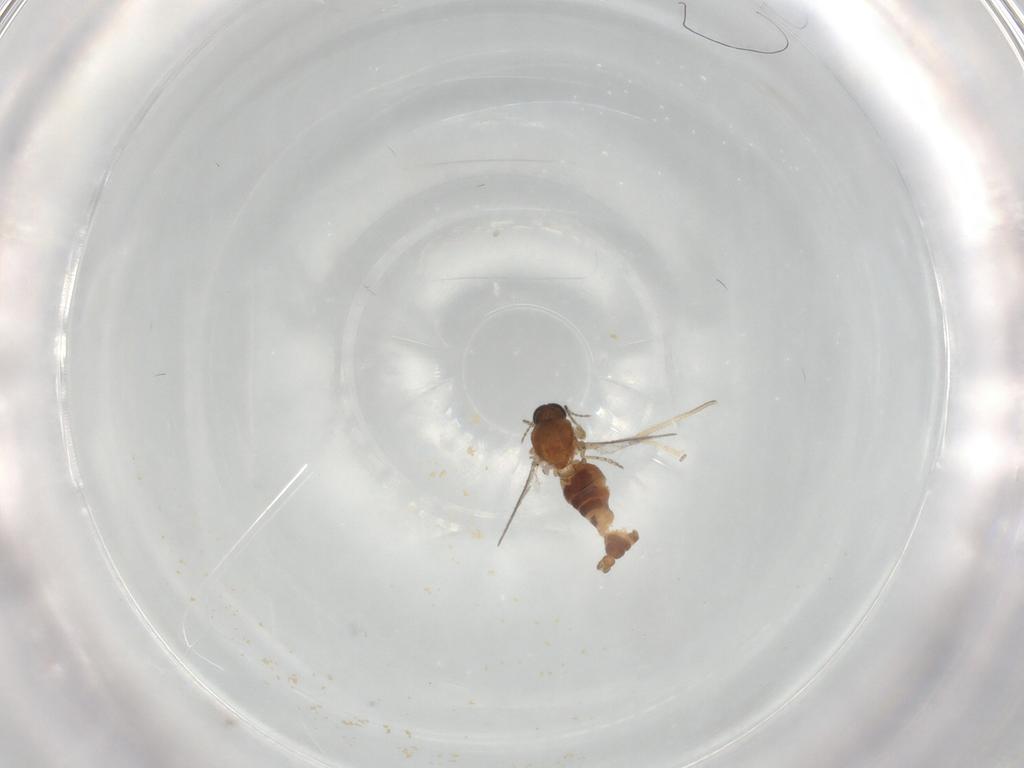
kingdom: Animalia
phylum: Arthropoda
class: Insecta
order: Diptera
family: Ceratopogonidae
